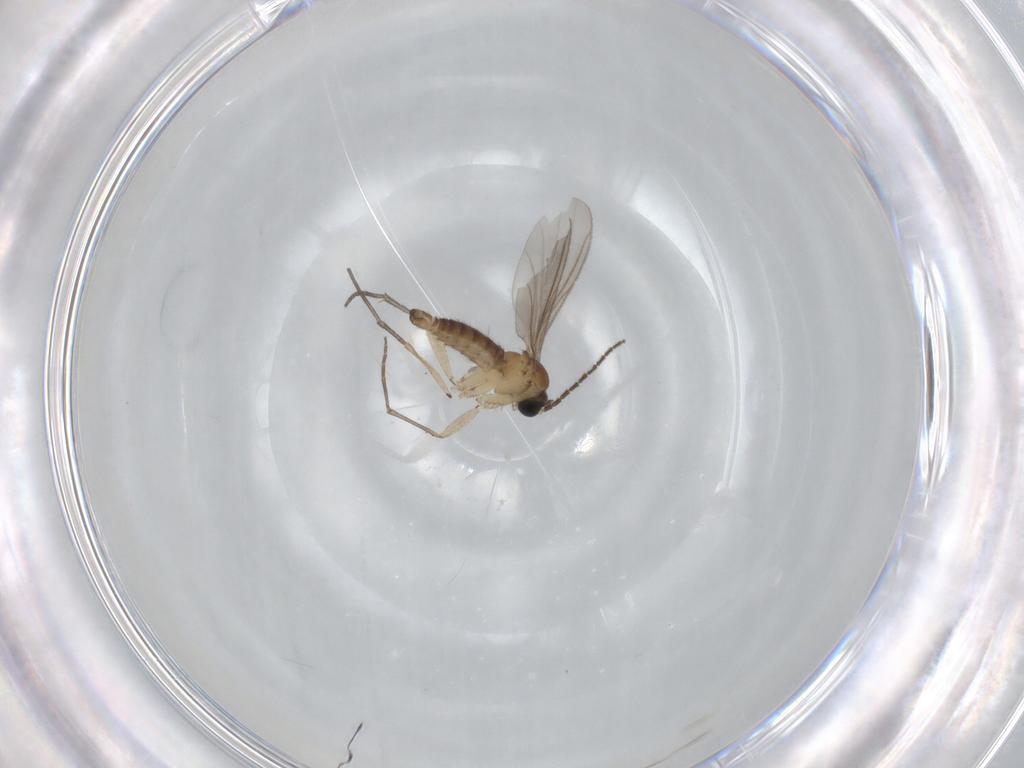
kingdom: Animalia
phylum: Arthropoda
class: Insecta
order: Diptera
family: Sciaridae
